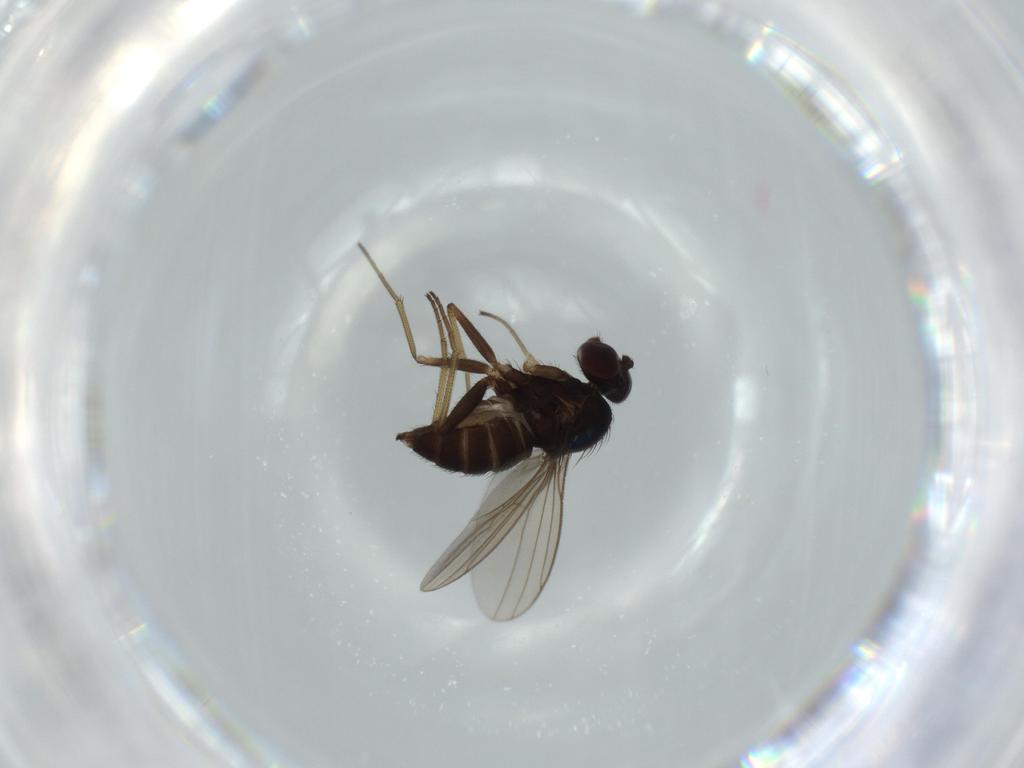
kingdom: Animalia
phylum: Arthropoda
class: Insecta
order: Diptera
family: Dolichopodidae
